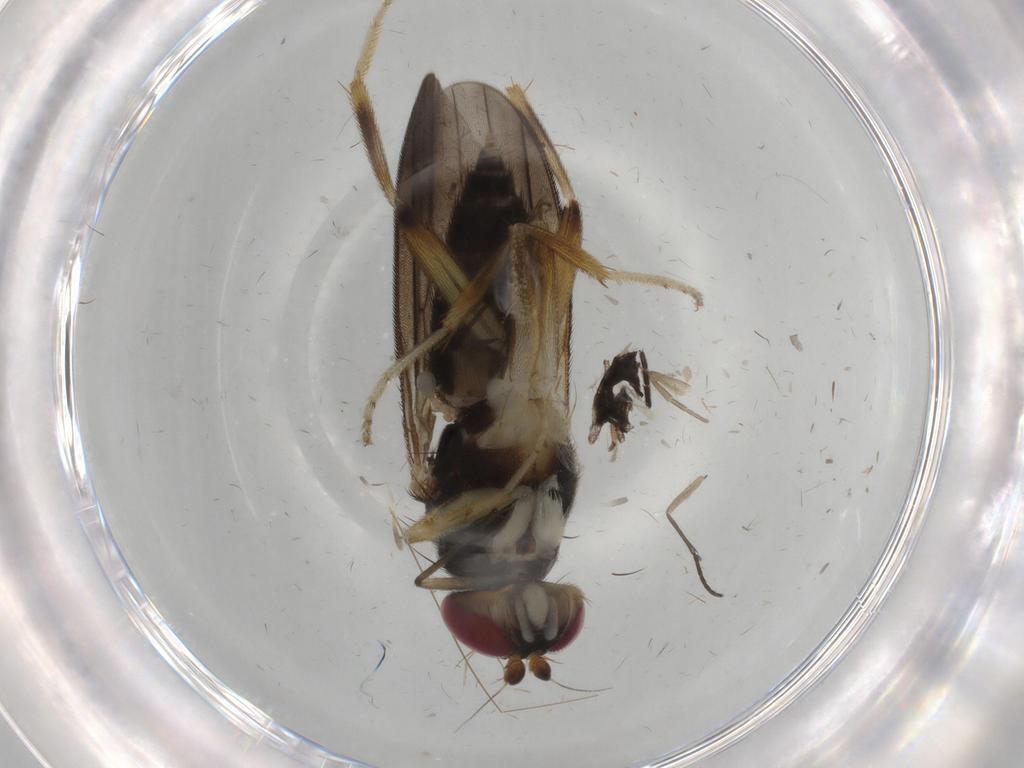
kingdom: Animalia
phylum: Arthropoda
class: Insecta
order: Diptera
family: Clusiidae
